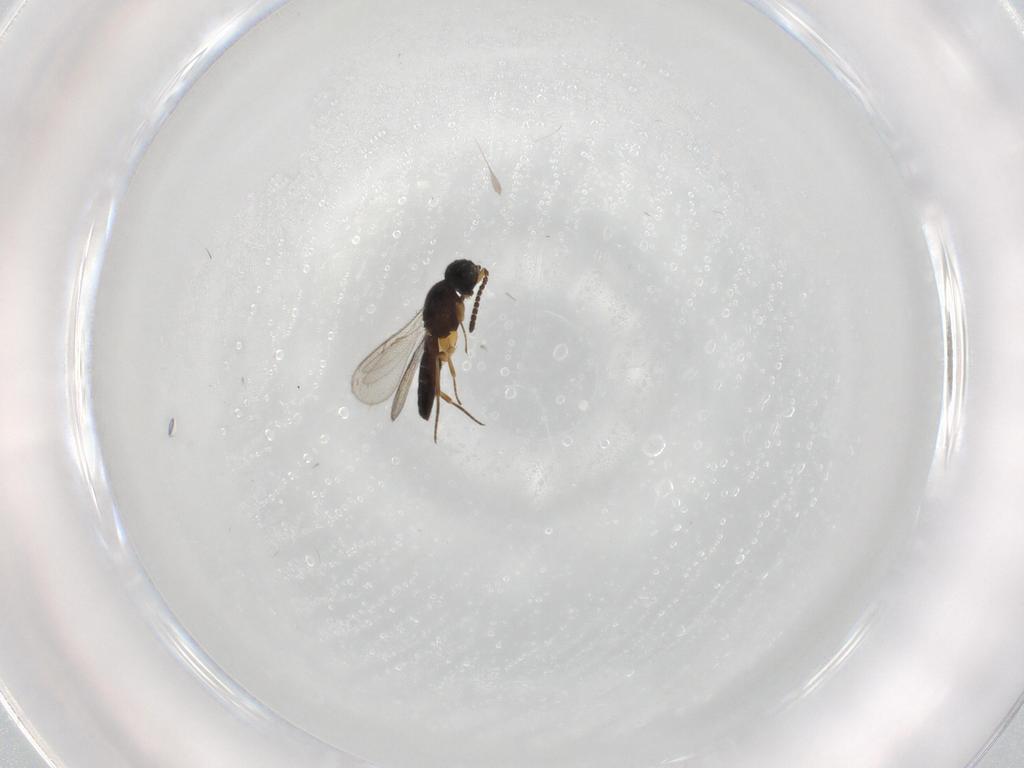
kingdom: Animalia
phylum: Arthropoda
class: Insecta
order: Hymenoptera
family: Scelionidae
